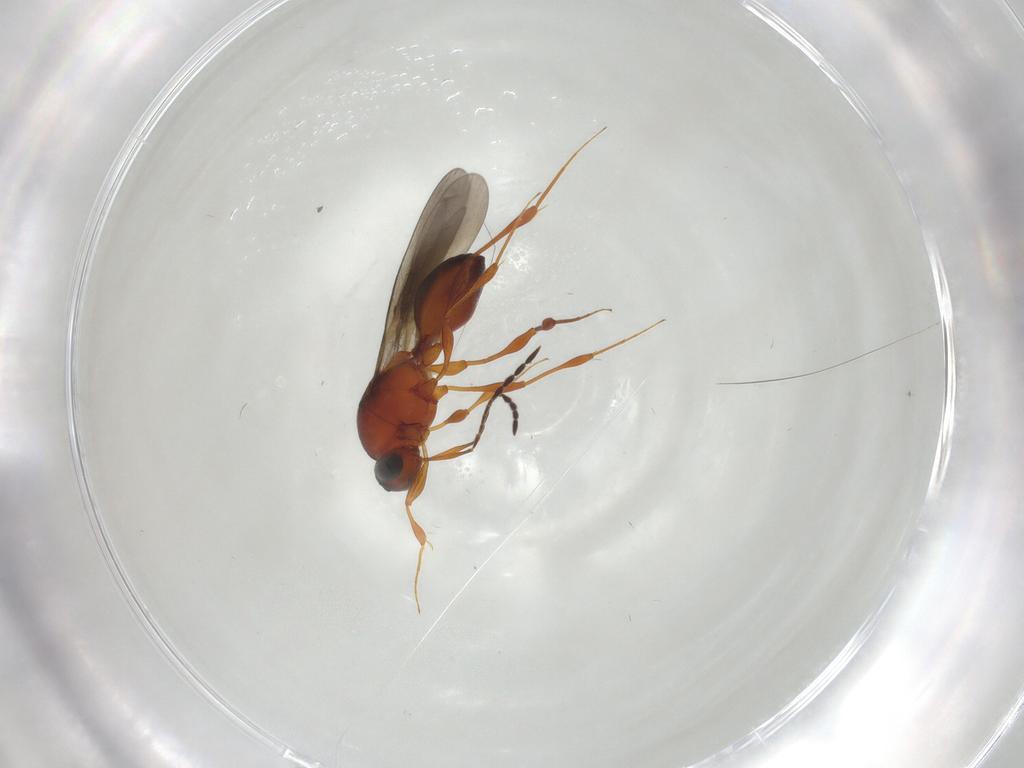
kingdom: Animalia
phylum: Arthropoda
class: Insecta
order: Hymenoptera
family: Platygastridae
